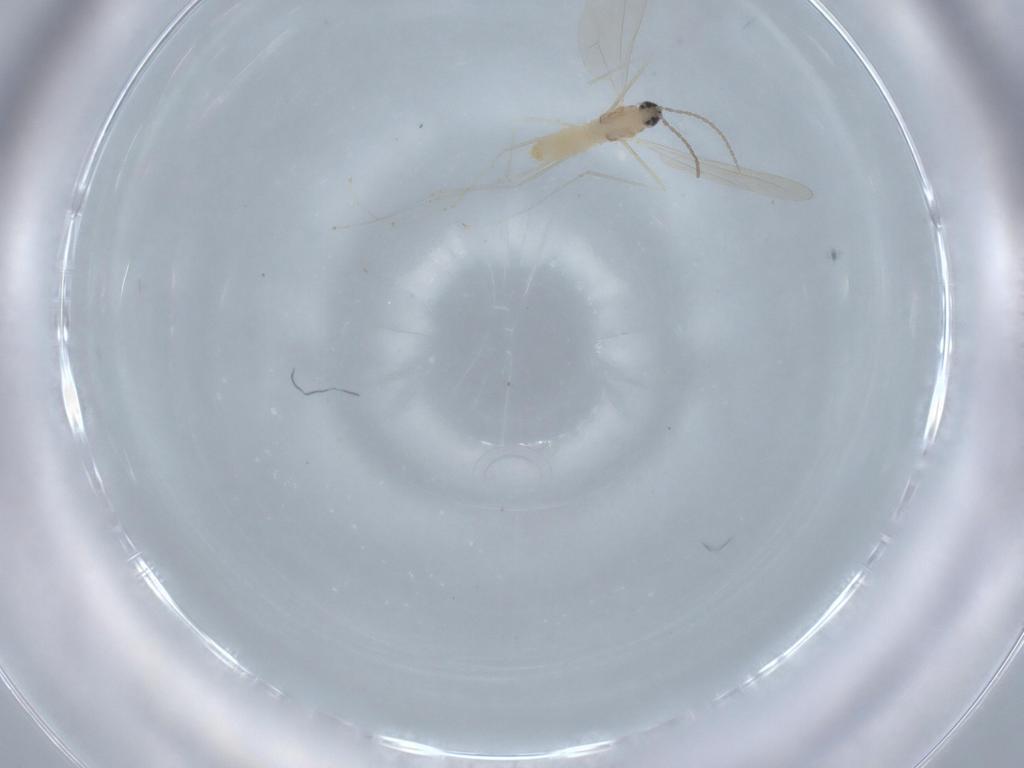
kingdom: Animalia
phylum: Arthropoda
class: Insecta
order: Diptera
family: Cecidomyiidae
